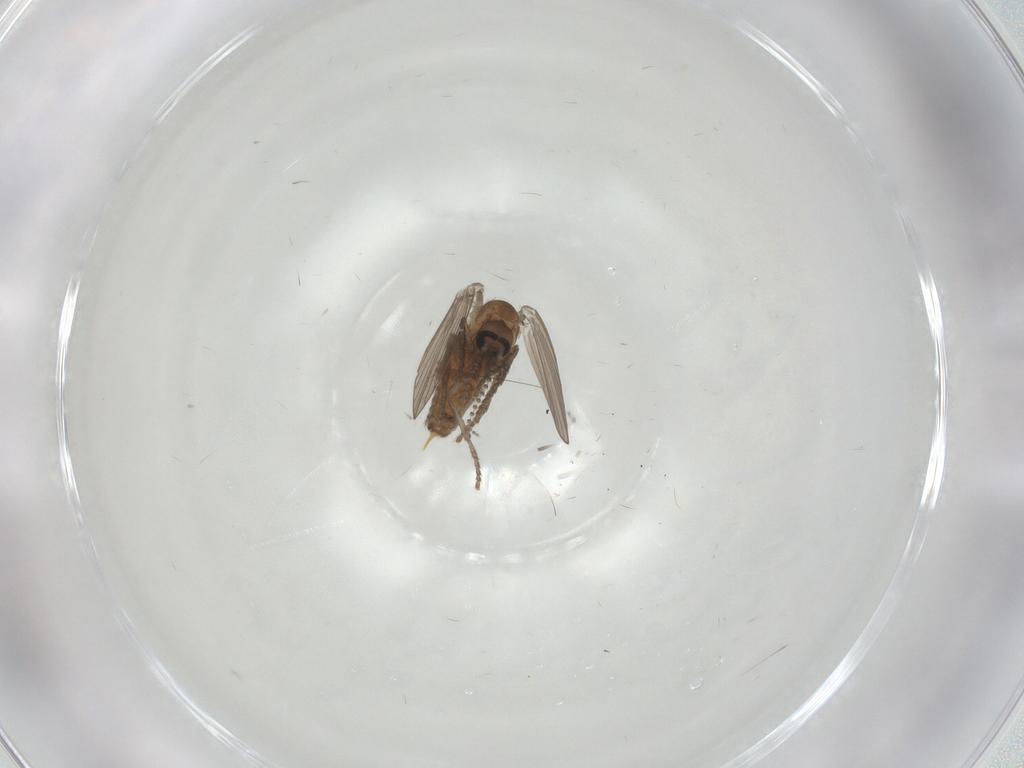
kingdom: Animalia
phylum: Arthropoda
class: Insecta
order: Diptera
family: Psychodidae
